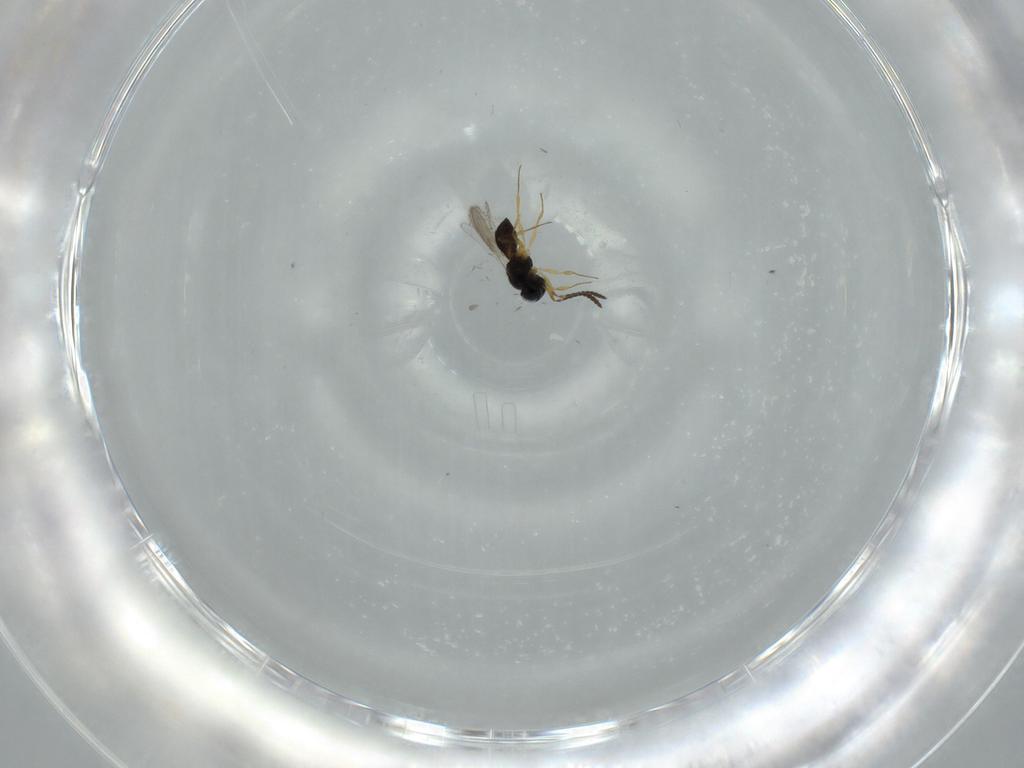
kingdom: Animalia
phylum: Arthropoda
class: Insecta
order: Hymenoptera
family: Scelionidae
